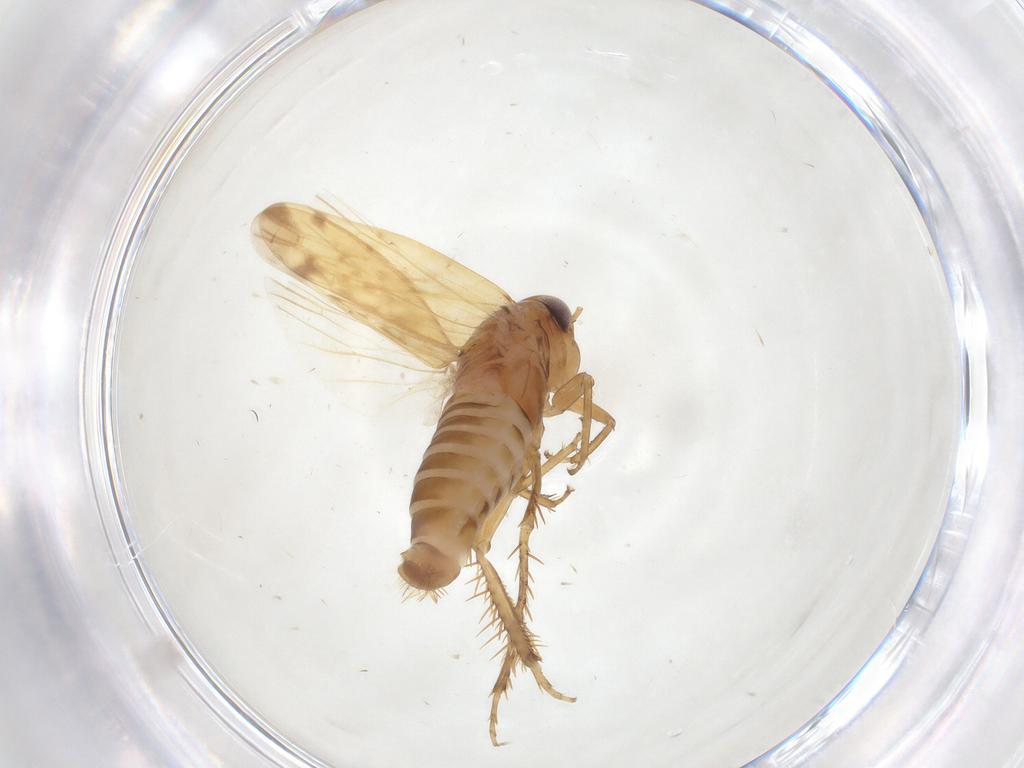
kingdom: Animalia
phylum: Arthropoda
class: Insecta
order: Hemiptera
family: Cicadellidae
